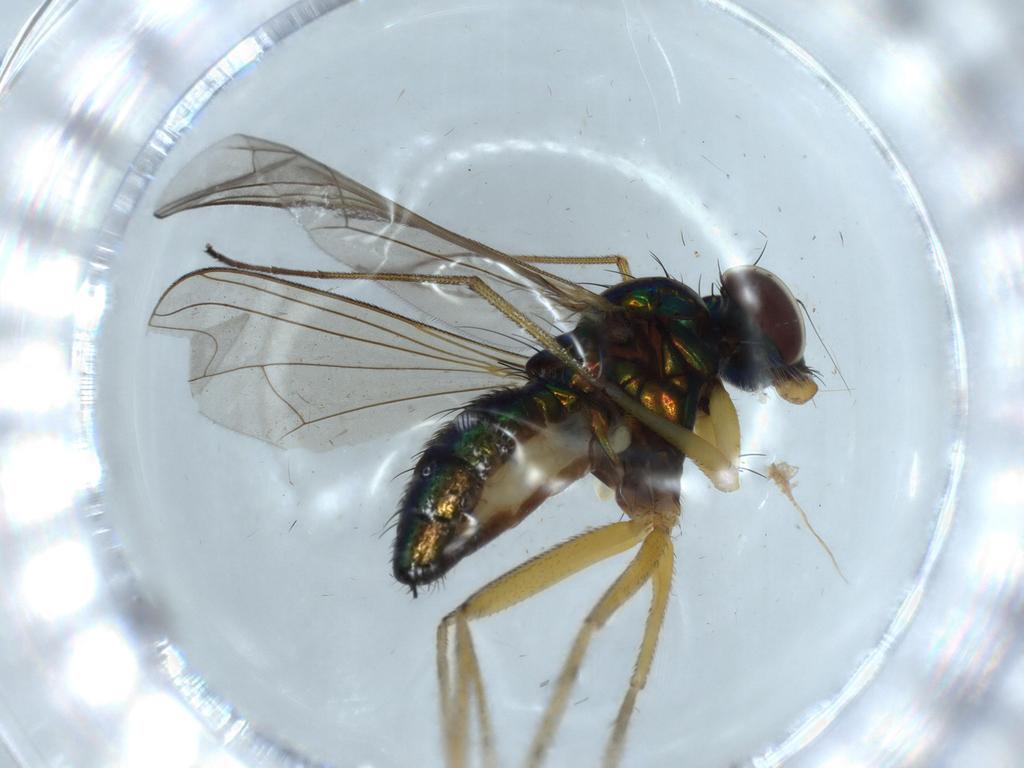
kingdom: Animalia
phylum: Arthropoda
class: Insecta
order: Diptera
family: Dolichopodidae
